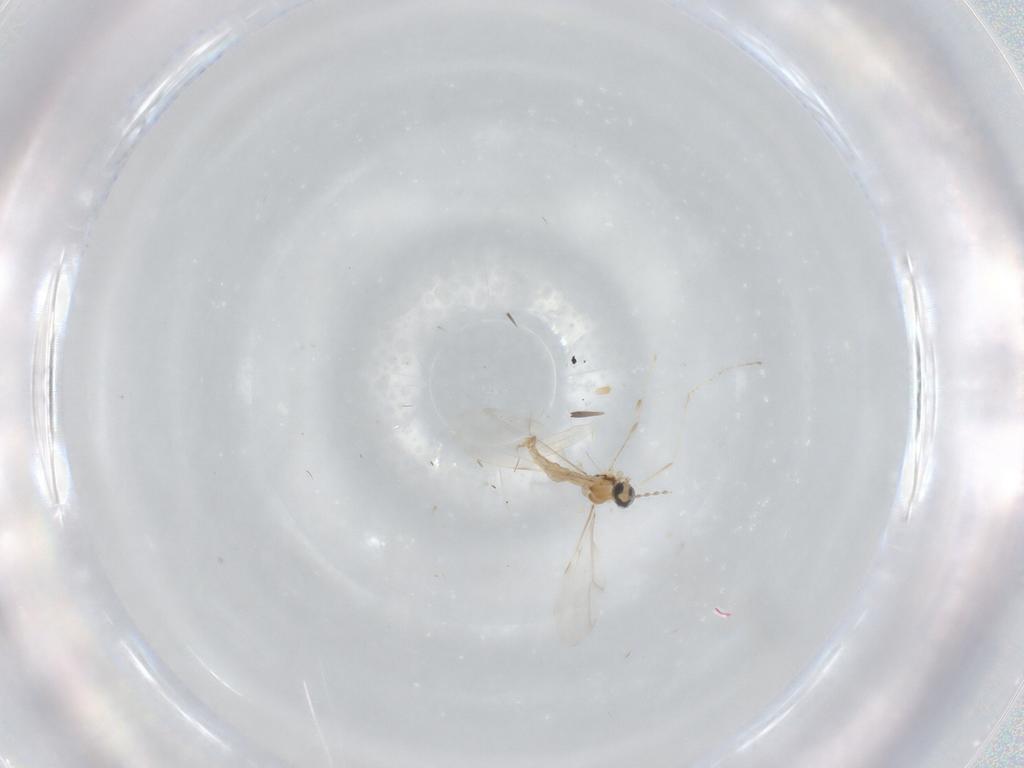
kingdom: Animalia
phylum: Arthropoda
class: Insecta
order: Diptera
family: Cecidomyiidae
